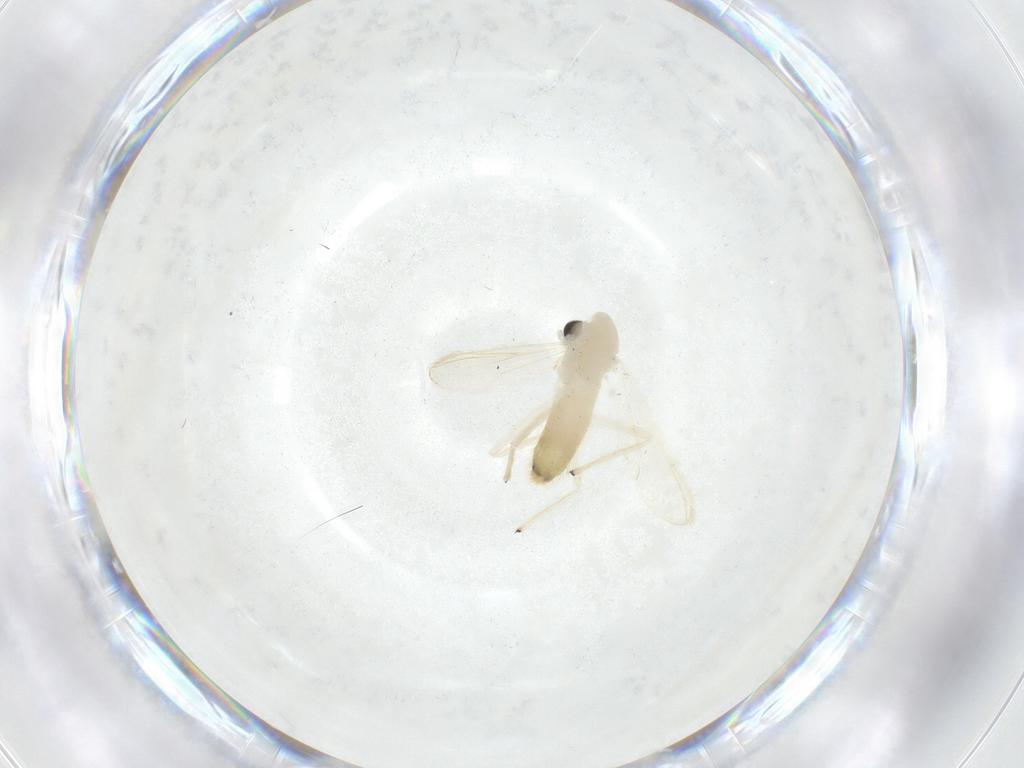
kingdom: Animalia
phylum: Arthropoda
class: Insecta
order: Diptera
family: Chironomidae
